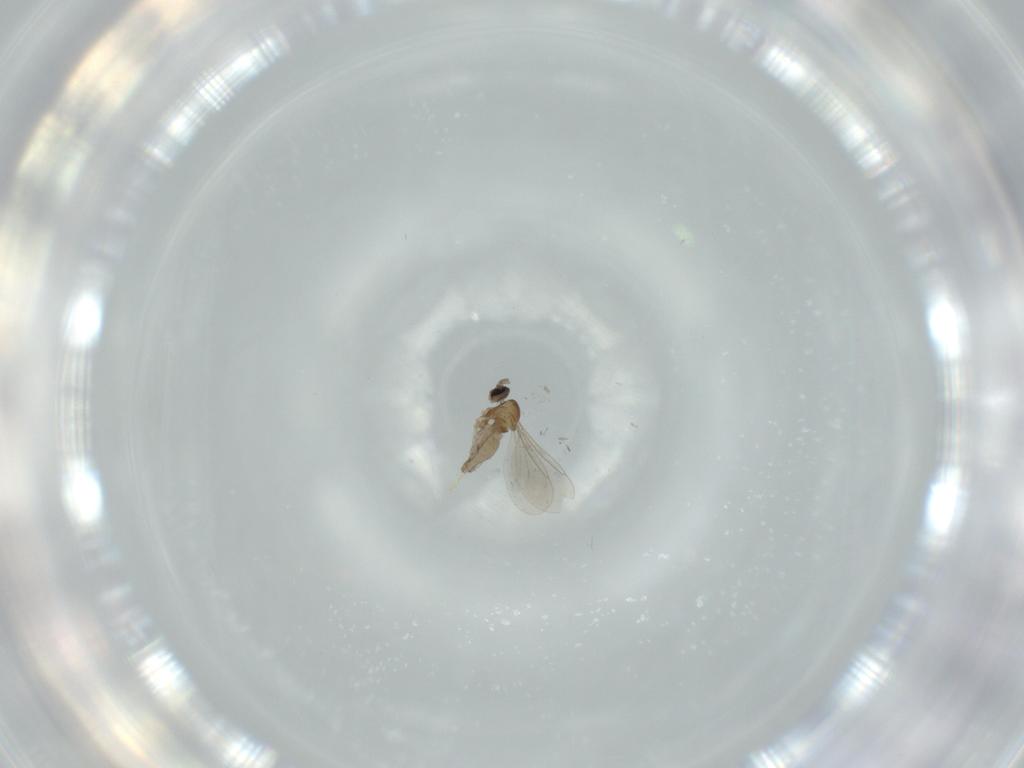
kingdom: Animalia
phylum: Arthropoda
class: Insecta
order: Diptera
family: Cecidomyiidae
